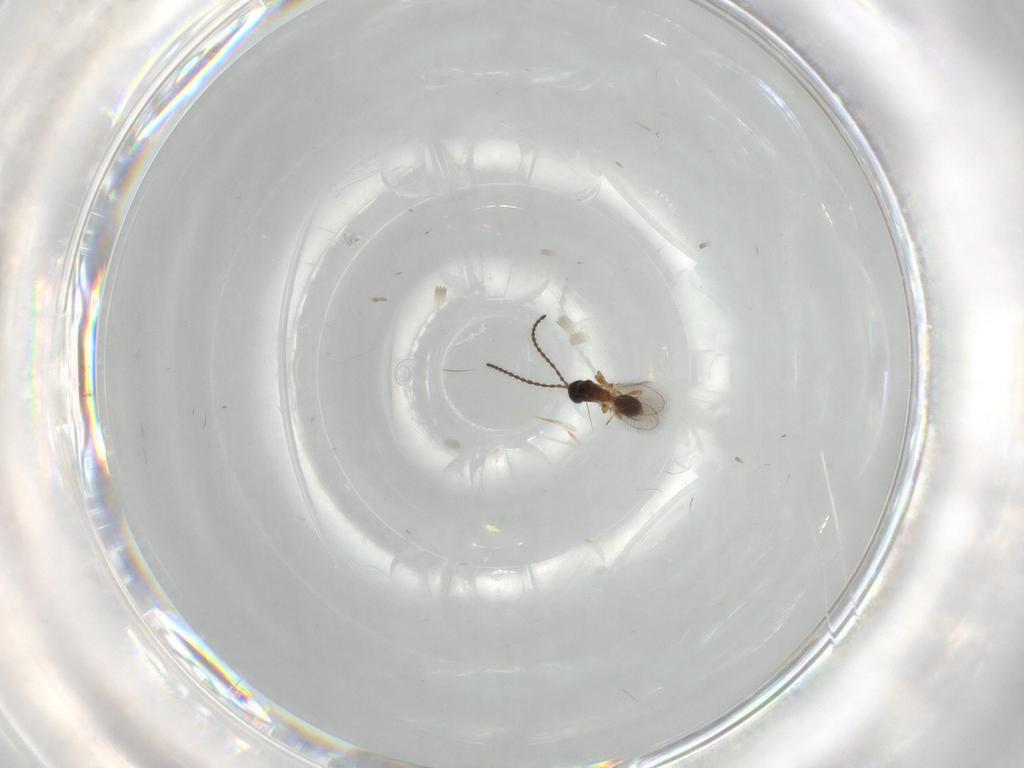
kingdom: Animalia
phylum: Arthropoda
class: Insecta
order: Hymenoptera
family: Diapriidae
